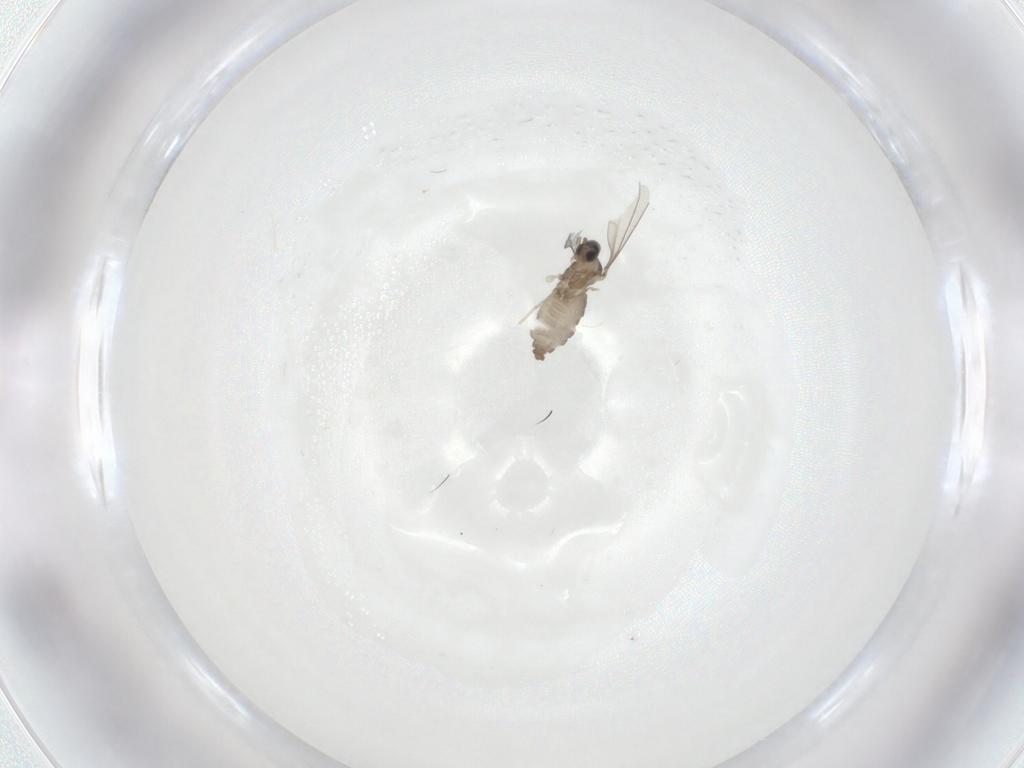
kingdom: Animalia
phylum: Arthropoda
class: Insecta
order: Diptera
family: Cecidomyiidae
